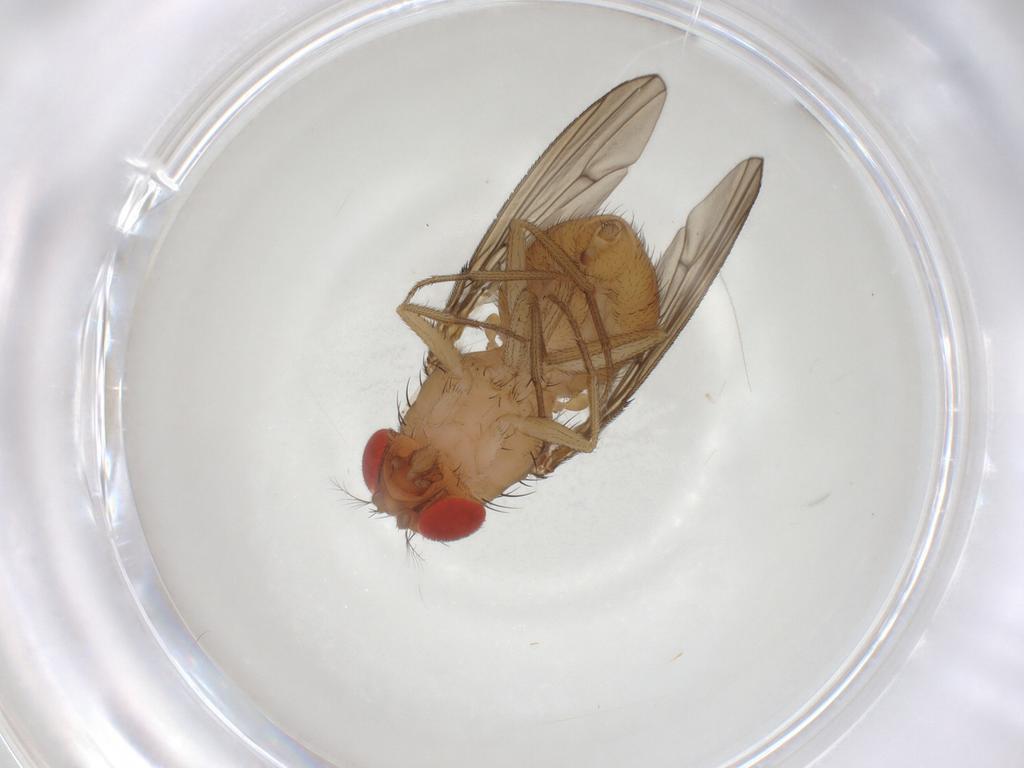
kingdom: Animalia
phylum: Arthropoda
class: Insecta
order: Diptera
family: Drosophilidae
